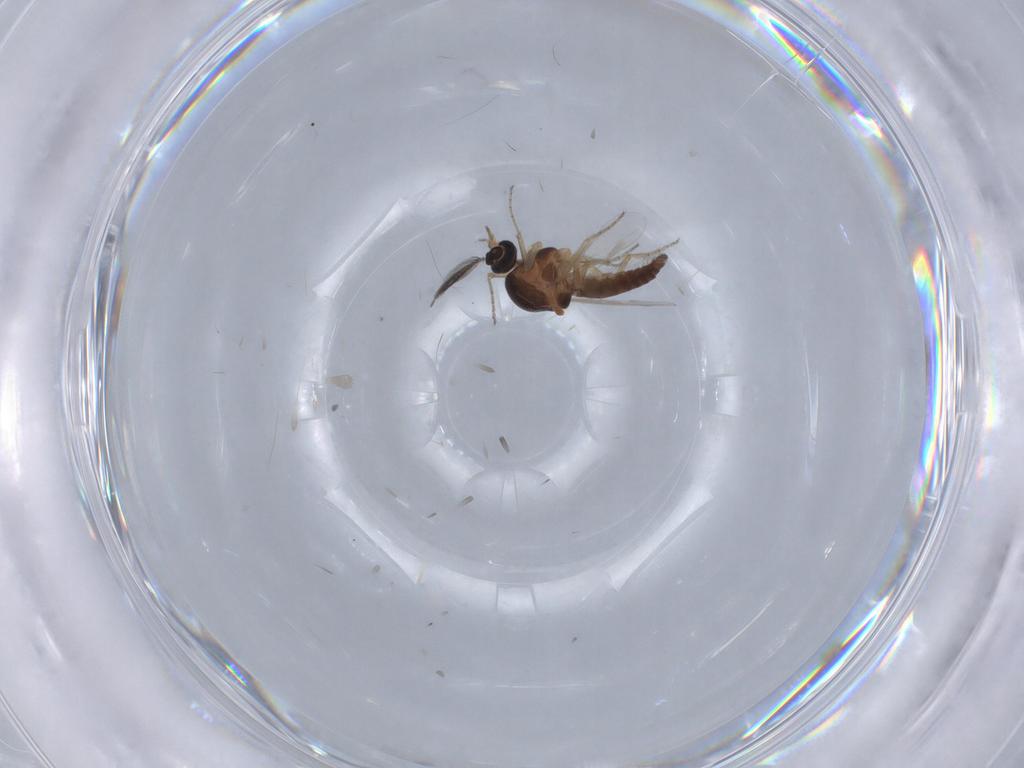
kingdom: Animalia
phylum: Arthropoda
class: Insecta
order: Diptera
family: Ceratopogonidae
